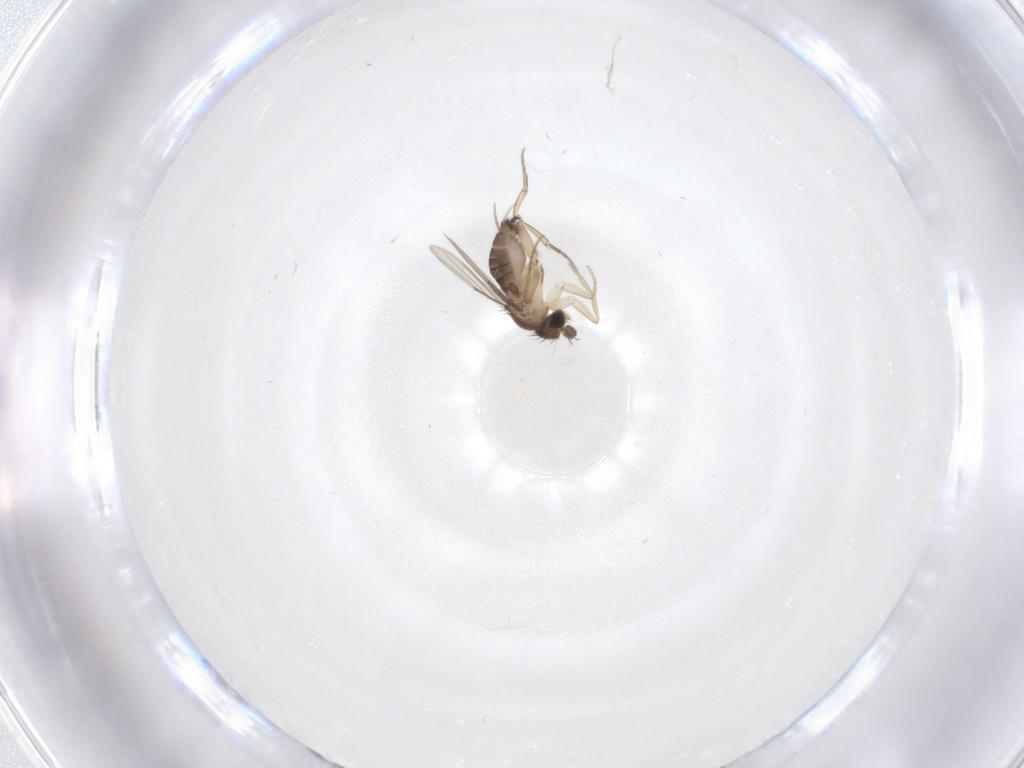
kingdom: Animalia
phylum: Arthropoda
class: Insecta
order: Diptera
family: Phoridae
